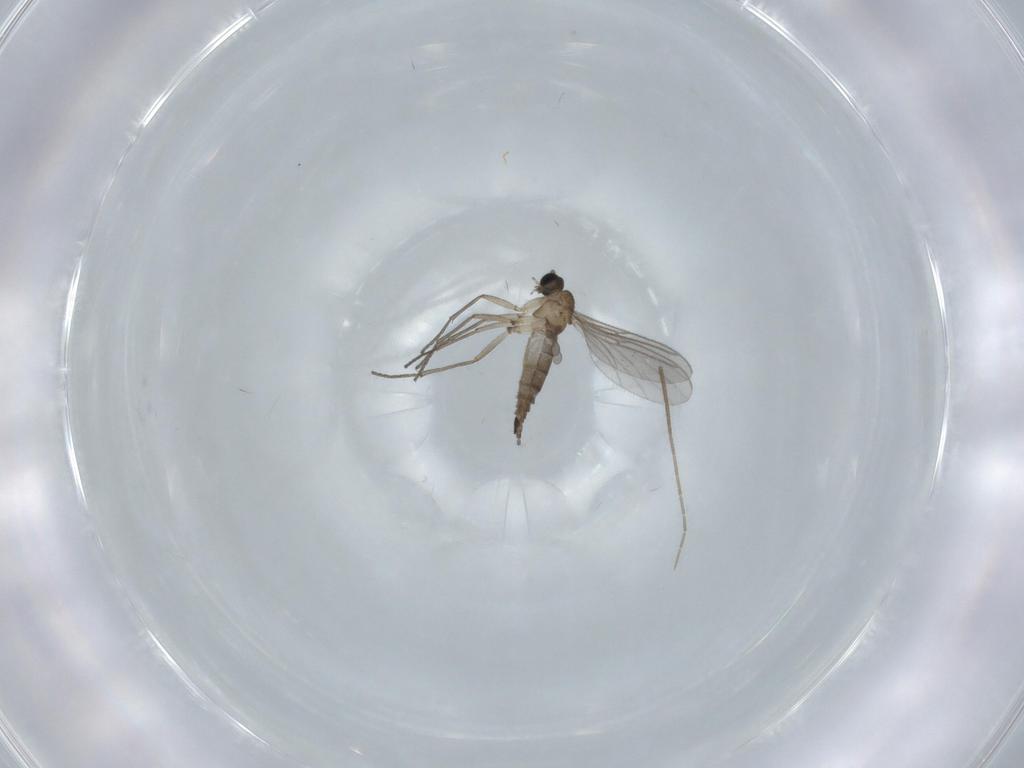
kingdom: Animalia
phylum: Arthropoda
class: Insecta
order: Diptera
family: Sciaridae
